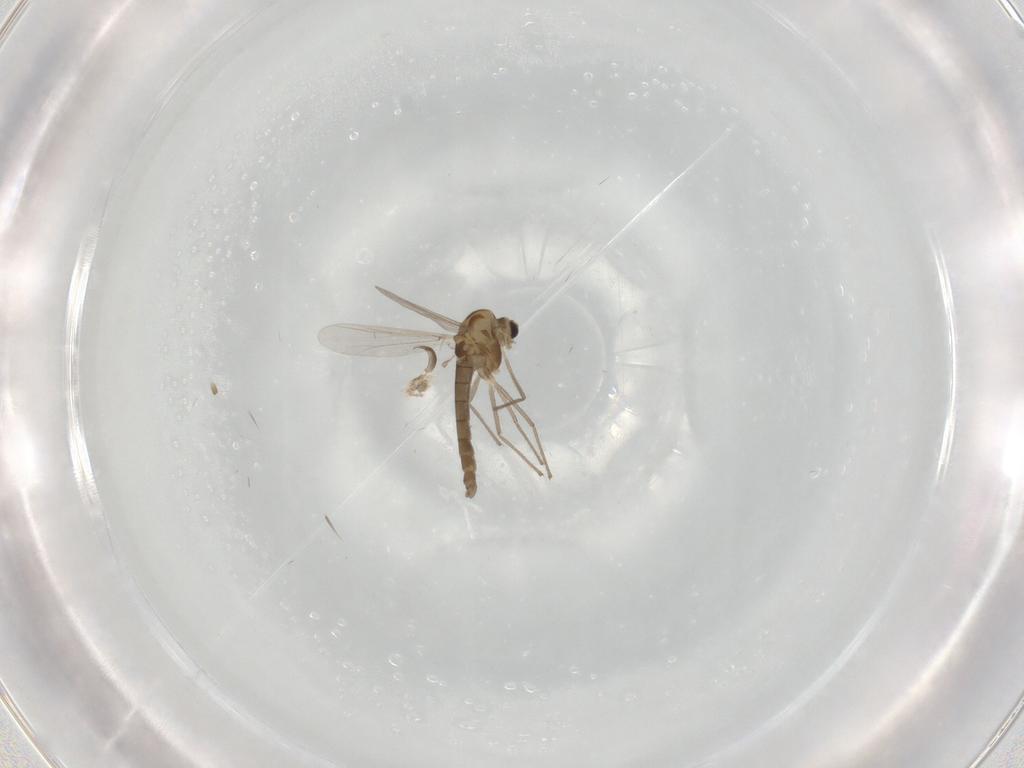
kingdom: Animalia
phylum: Arthropoda
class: Insecta
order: Diptera
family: Chironomidae
